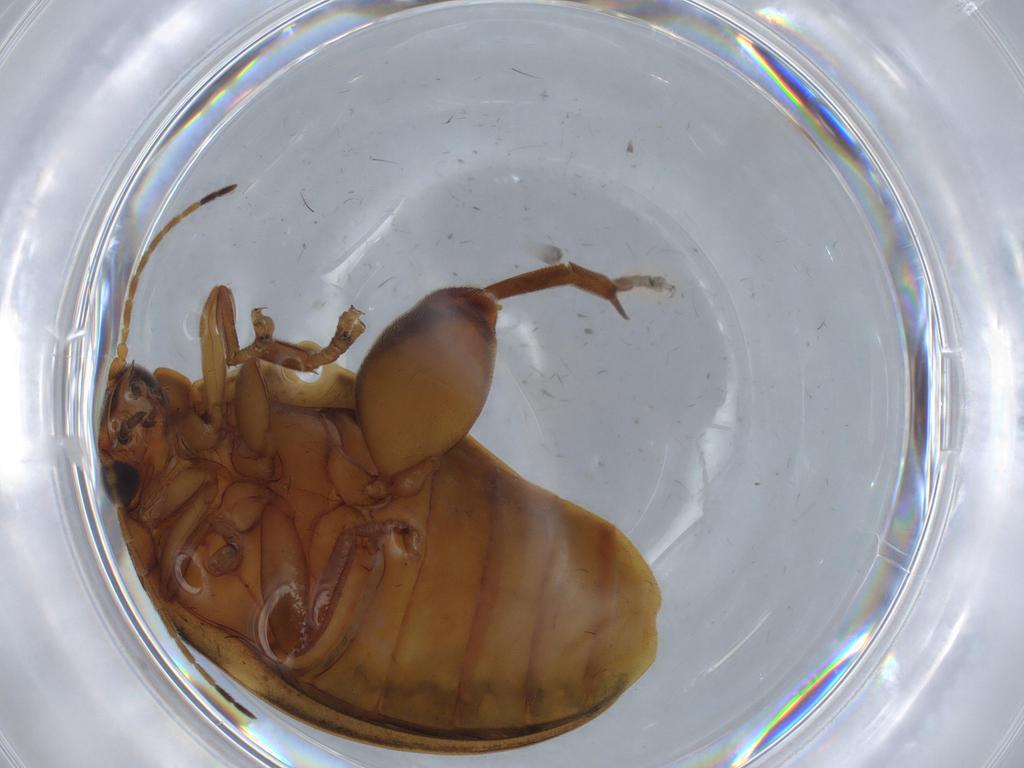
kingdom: Animalia
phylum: Arthropoda
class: Insecta
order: Coleoptera
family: Scirtidae
